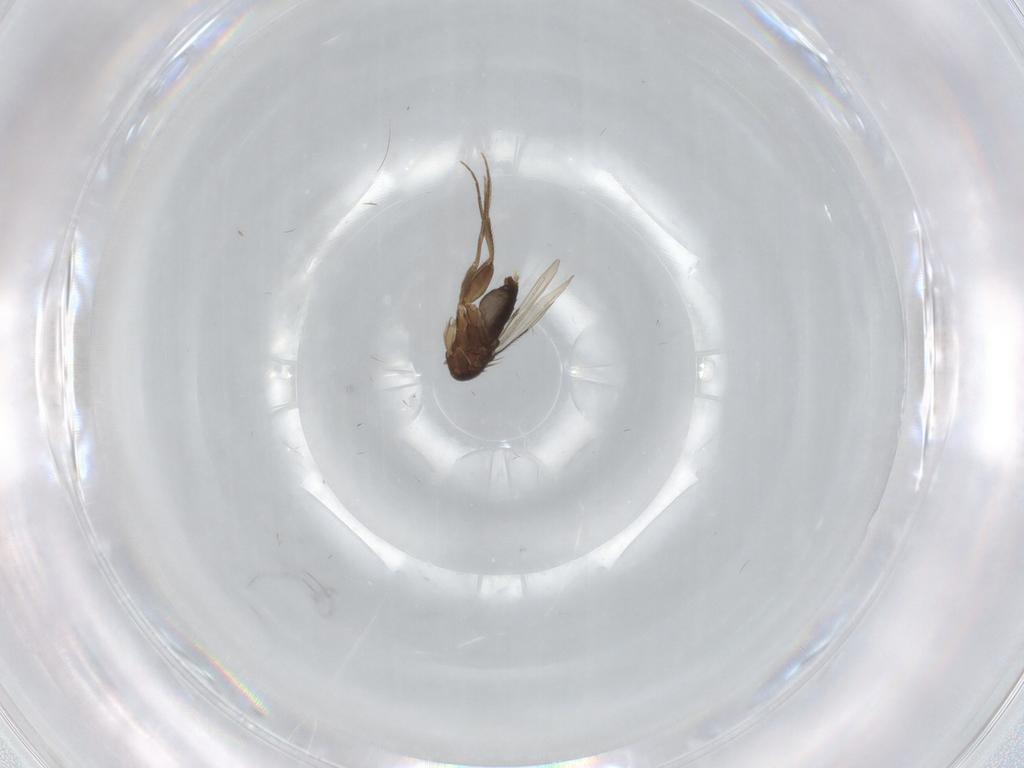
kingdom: Animalia
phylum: Arthropoda
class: Insecta
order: Diptera
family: Phoridae
